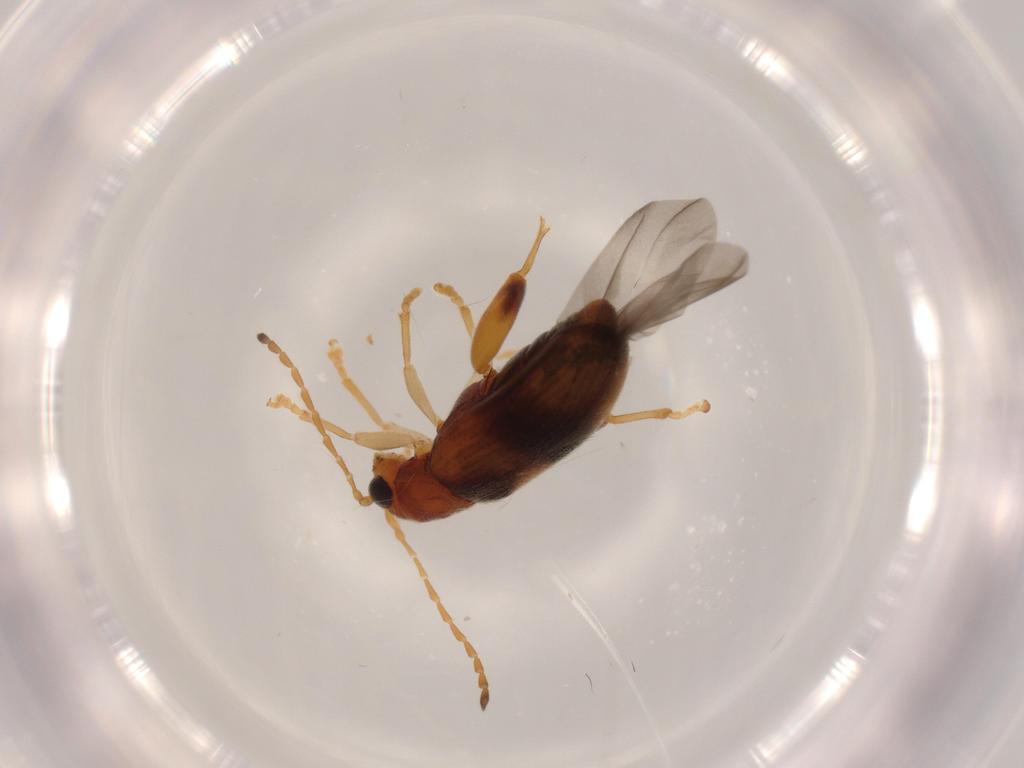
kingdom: Animalia
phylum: Arthropoda
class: Insecta
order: Coleoptera
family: Chrysomelidae
